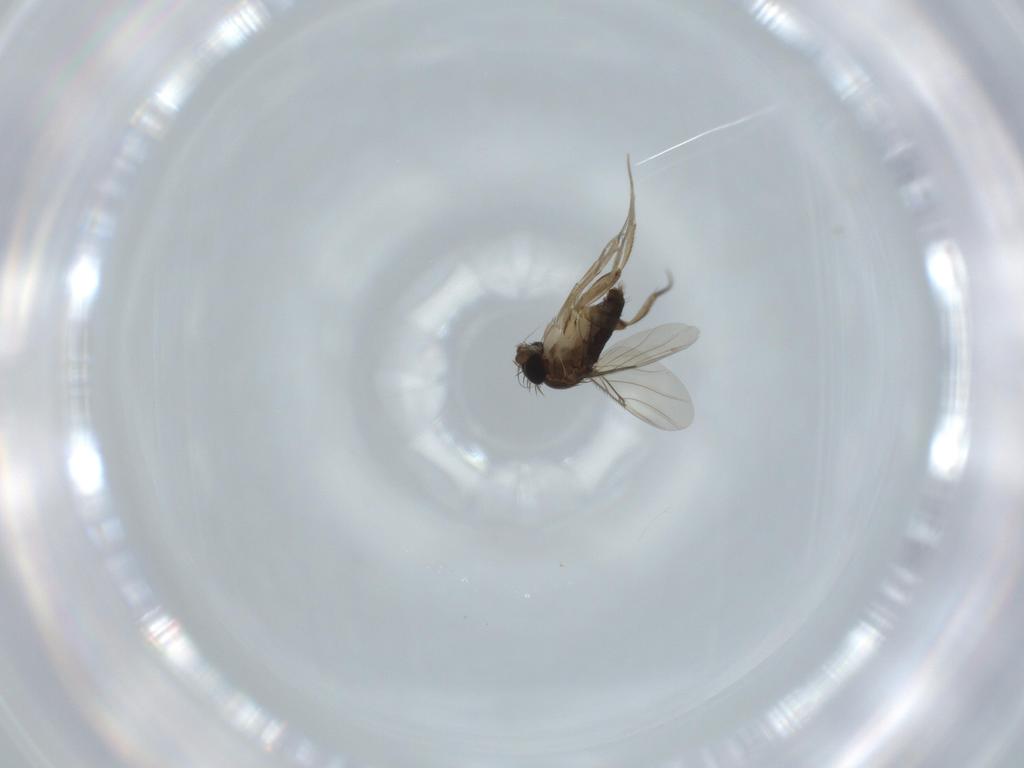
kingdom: Animalia
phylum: Arthropoda
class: Insecta
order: Diptera
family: Phoridae
